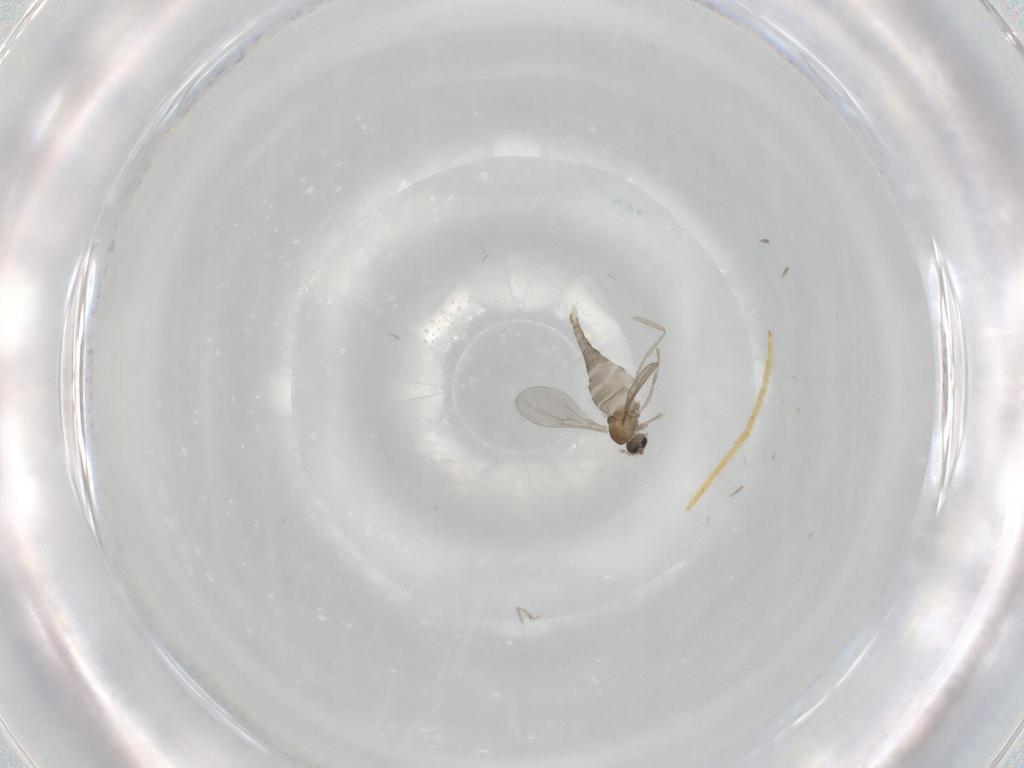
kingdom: Animalia
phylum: Arthropoda
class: Insecta
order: Diptera
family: Cecidomyiidae
